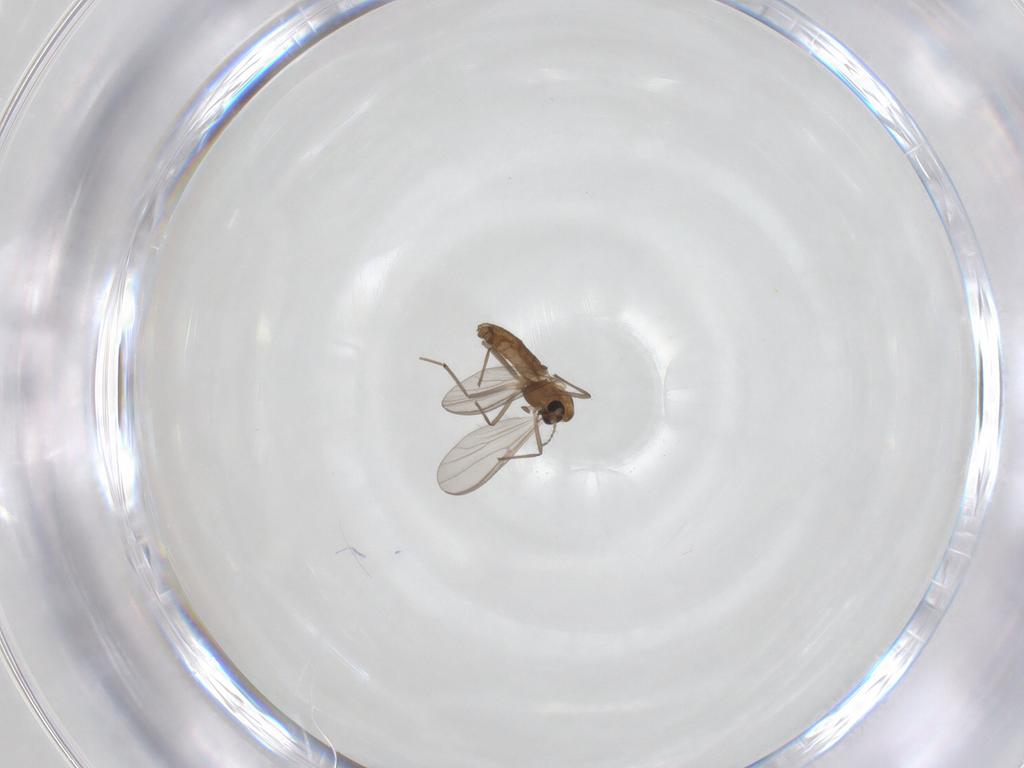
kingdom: Animalia
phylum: Arthropoda
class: Insecta
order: Diptera
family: Chironomidae
